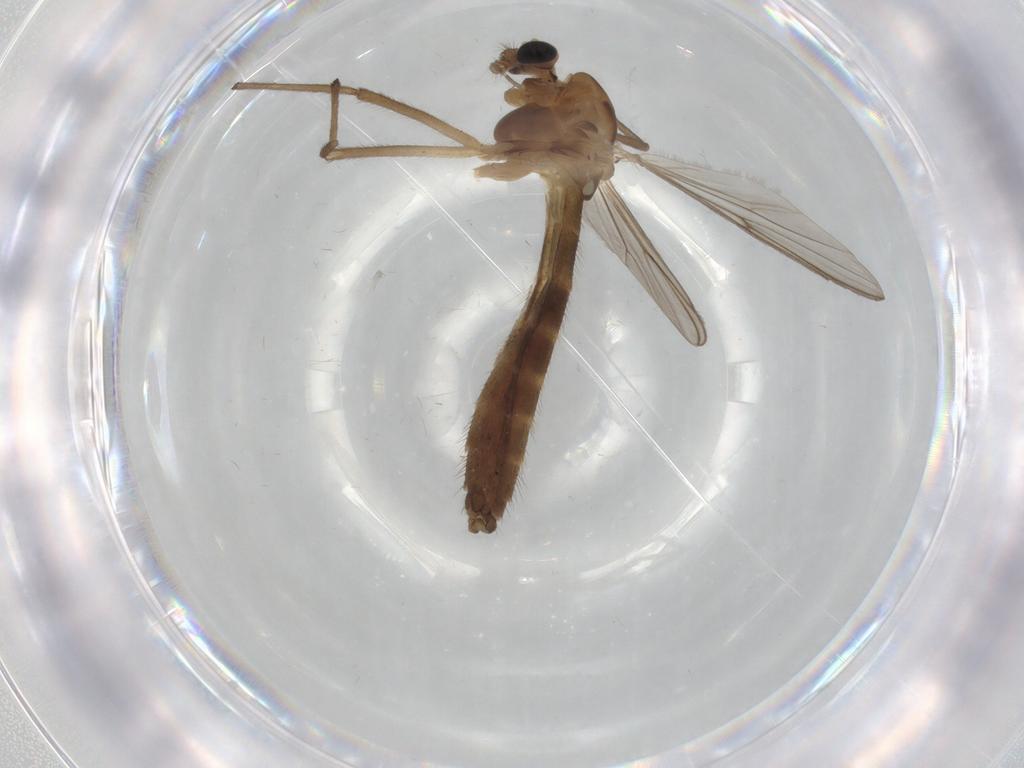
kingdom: Animalia
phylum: Arthropoda
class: Insecta
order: Diptera
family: Chironomidae
